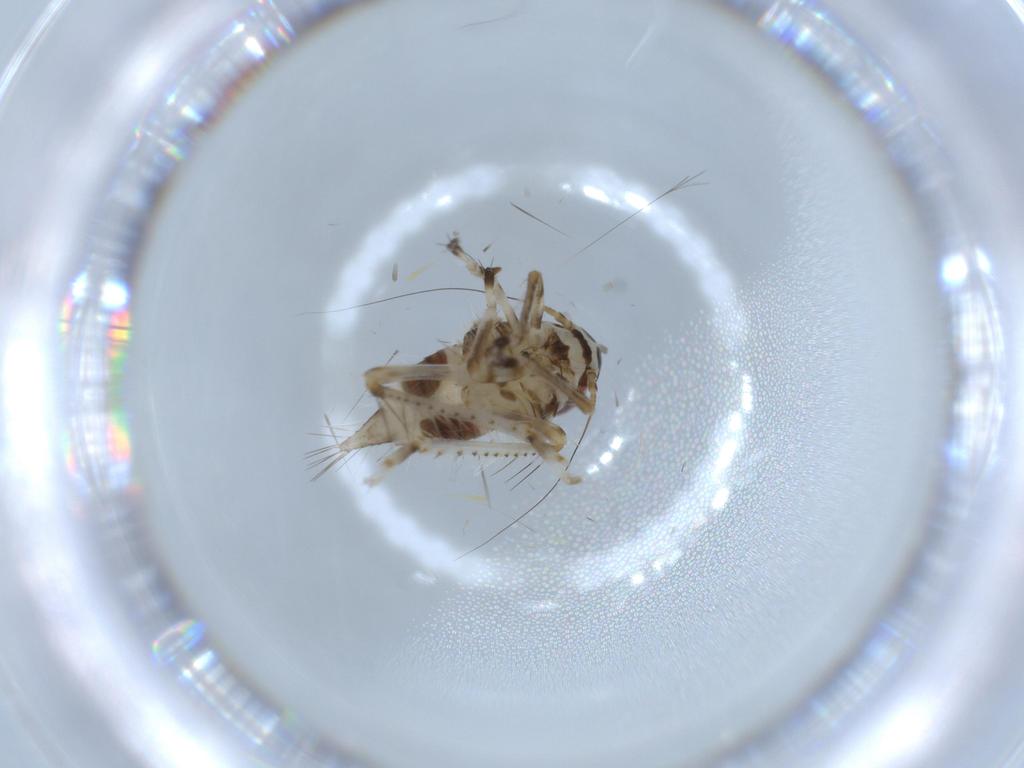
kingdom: Animalia
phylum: Arthropoda
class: Insecta
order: Hemiptera
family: Cicadellidae
